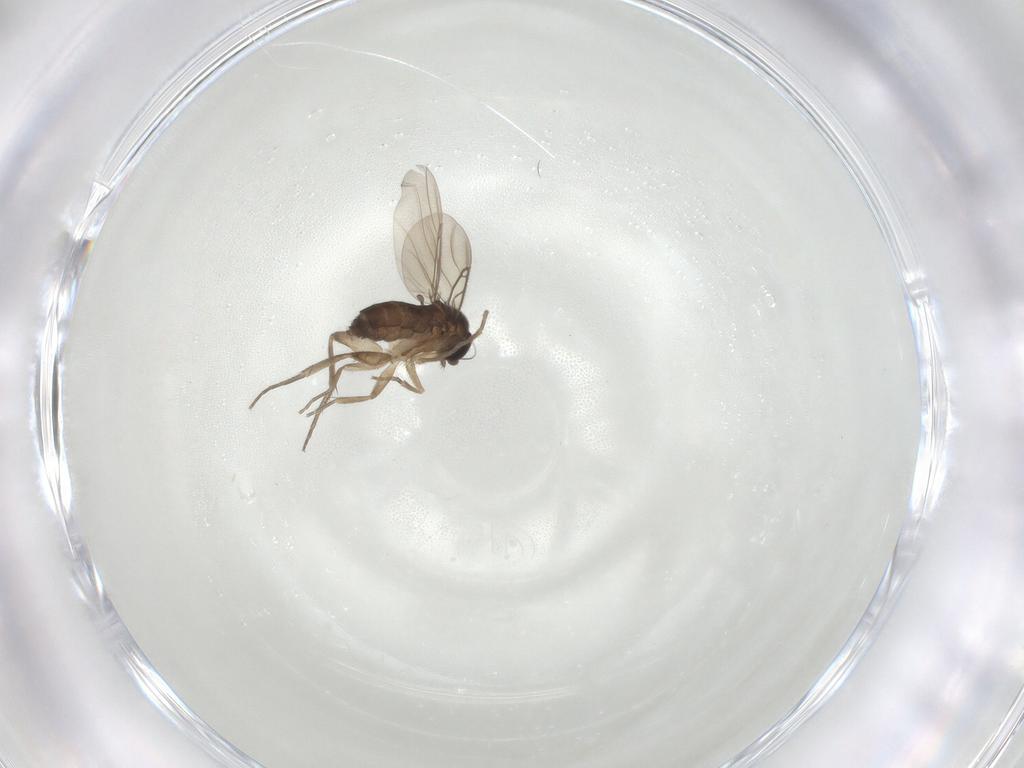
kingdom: Animalia
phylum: Arthropoda
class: Insecta
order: Diptera
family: Phoridae
